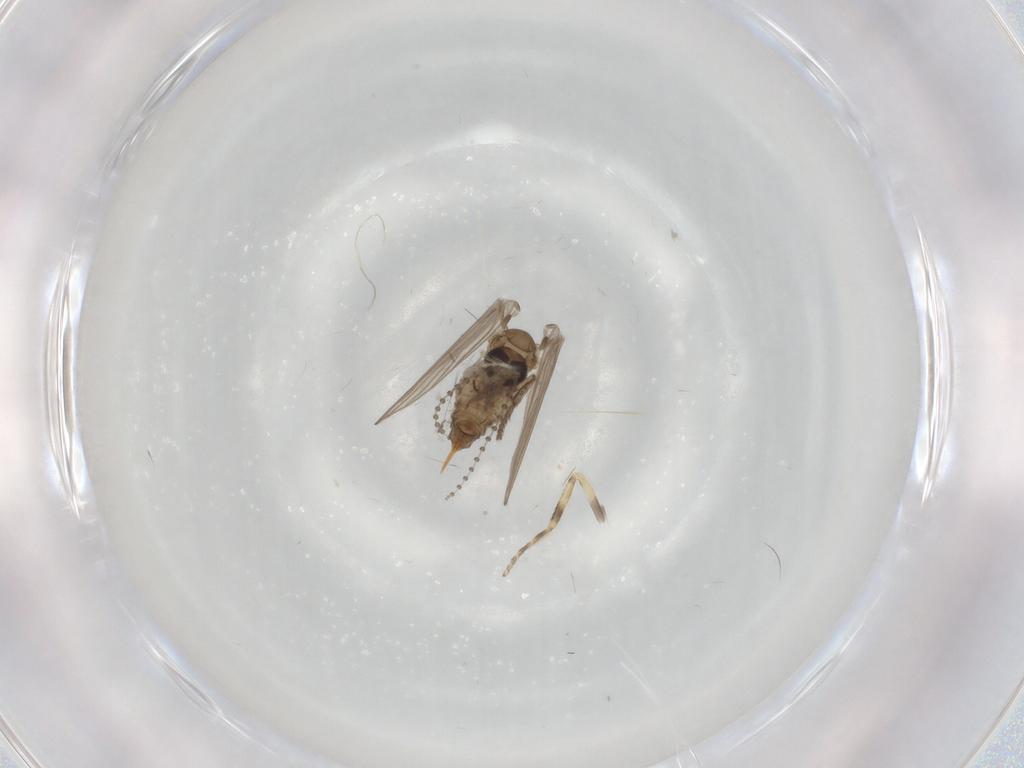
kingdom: Animalia
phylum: Arthropoda
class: Insecta
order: Diptera
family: Psychodidae
